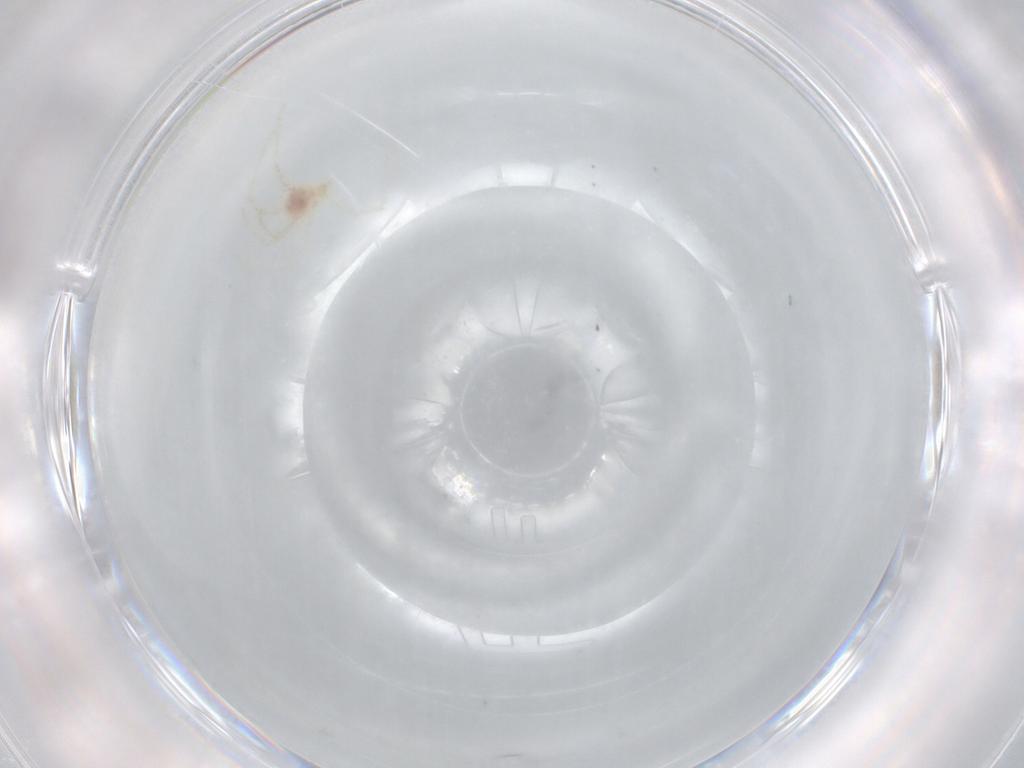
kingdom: Animalia
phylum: Arthropoda
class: Arachnida
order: Trombidiformes
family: Erythraeidae
